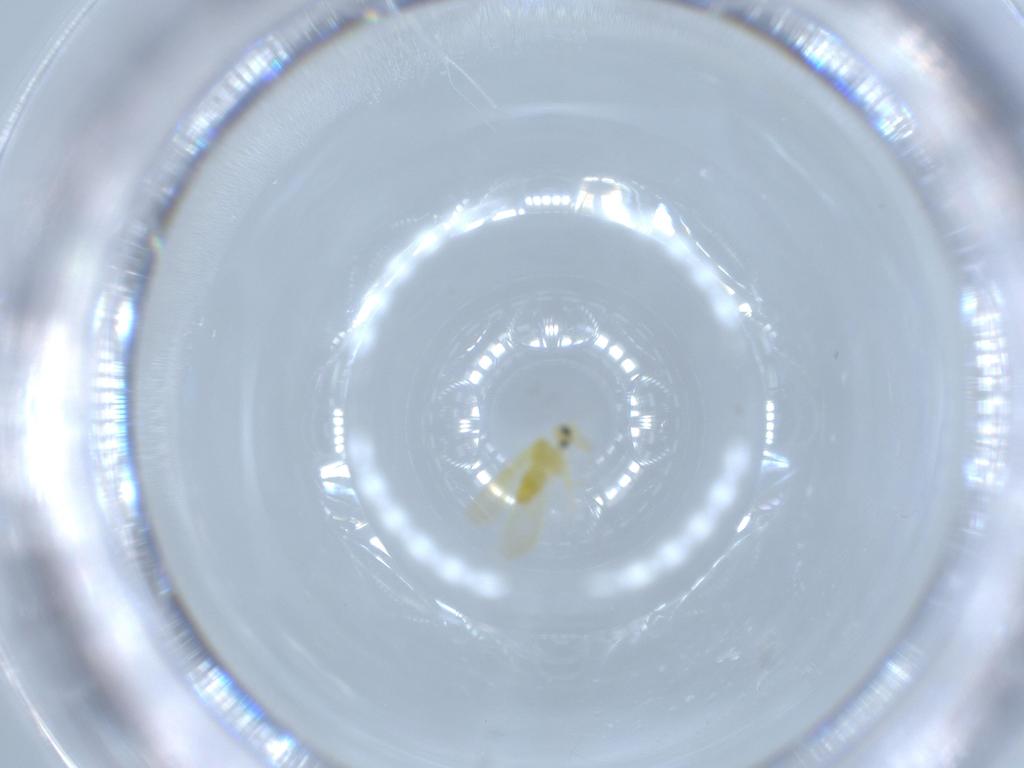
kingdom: Animalia
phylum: Arthropoda
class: Insecta
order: Hemiptera
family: Aleyrodidae
